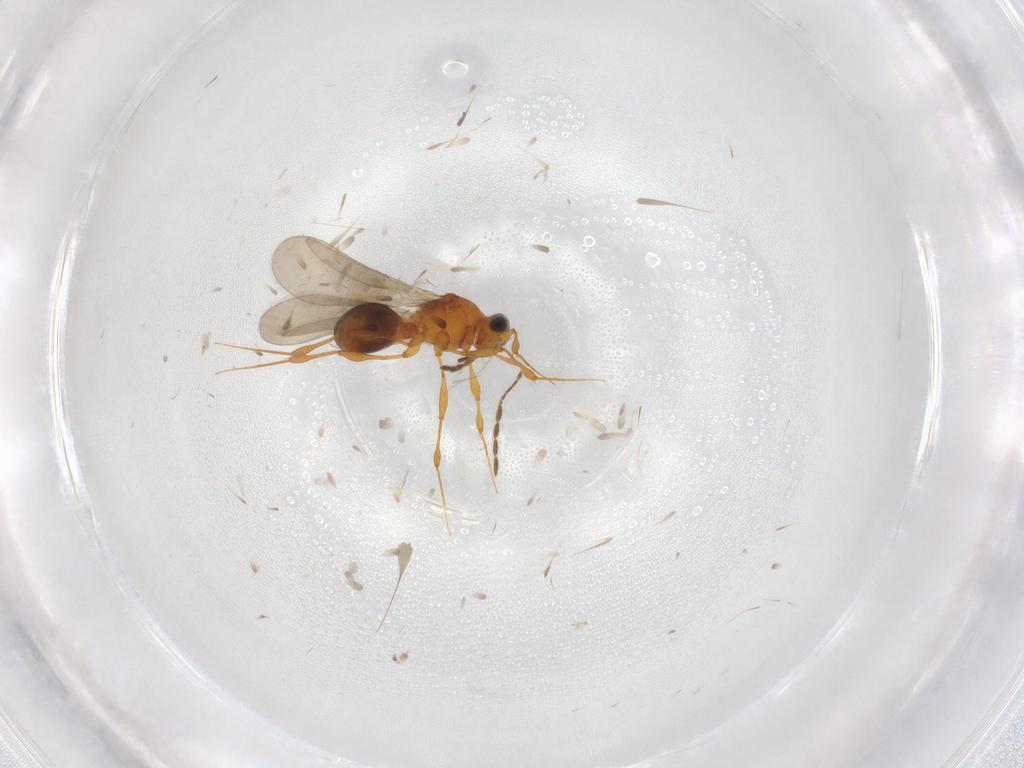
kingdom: Animalia
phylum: Arthropoda
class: Insecta
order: Hymenoptera
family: Platygastridae
